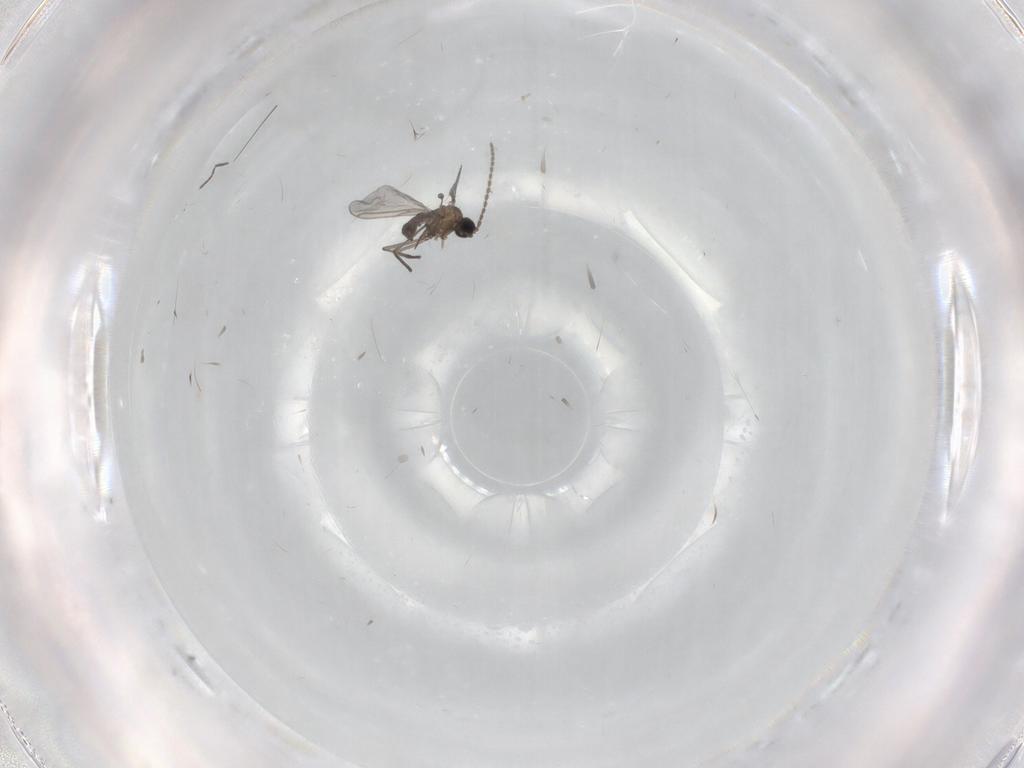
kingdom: Animalia
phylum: Arthropoda
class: Insecta
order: Diptera
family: Sciaridae
